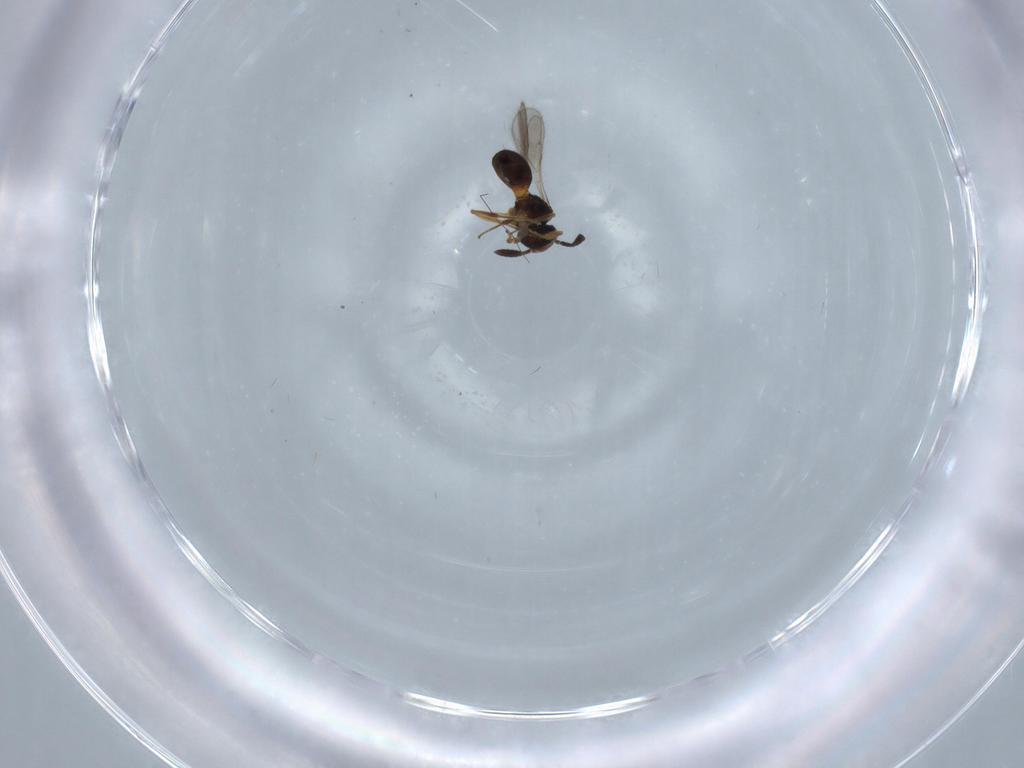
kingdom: Animalia
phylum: Arthropoda
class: Insecta
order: Hymenoptera
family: Scelionidae
